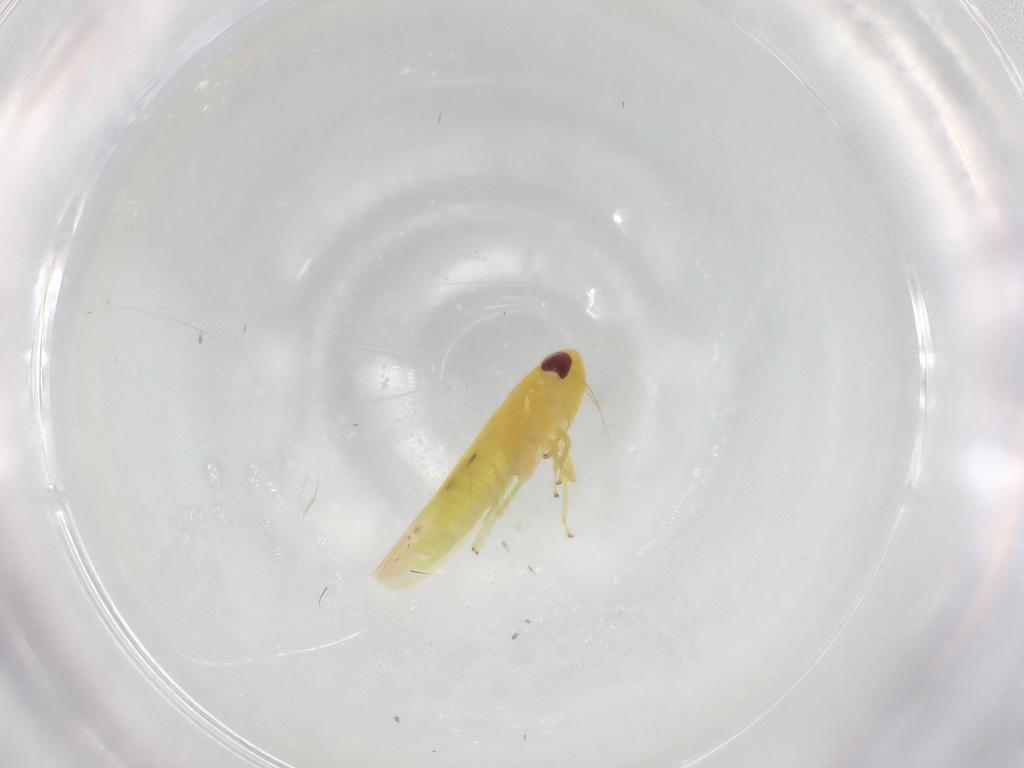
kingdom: Animalia
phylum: Arthropoda
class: Insecta
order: Hemiptera
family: Cicadellidae
